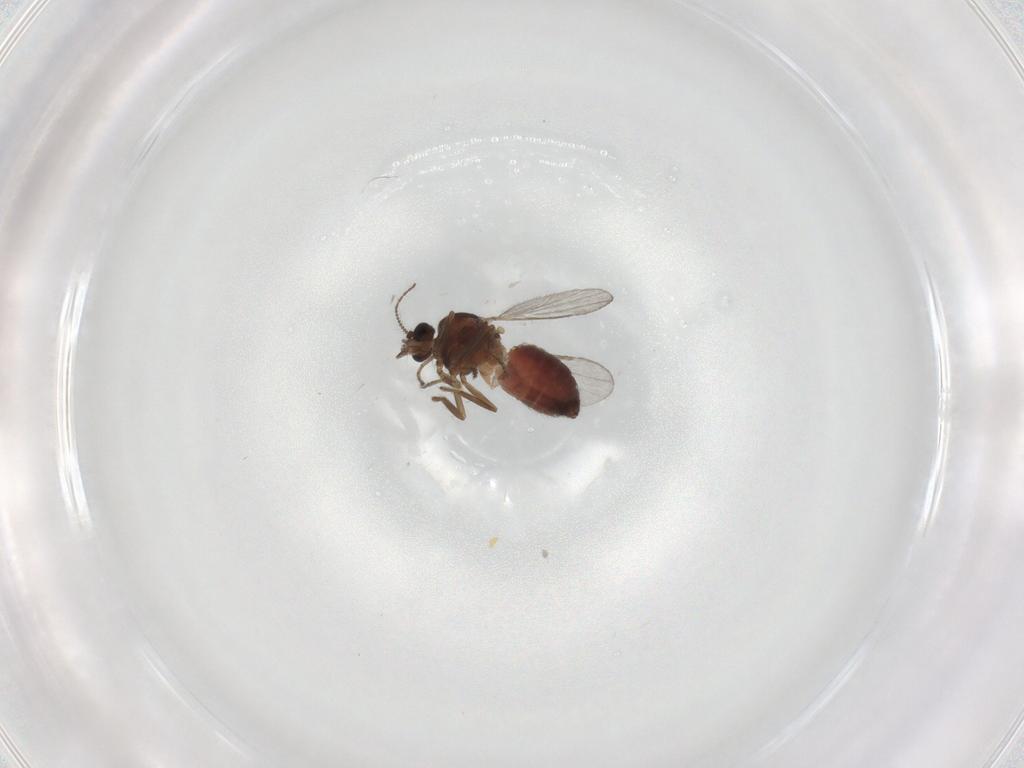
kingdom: Animalia
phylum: Arthropoda
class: Insecta
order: Diptera
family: Ceratopogonidae
